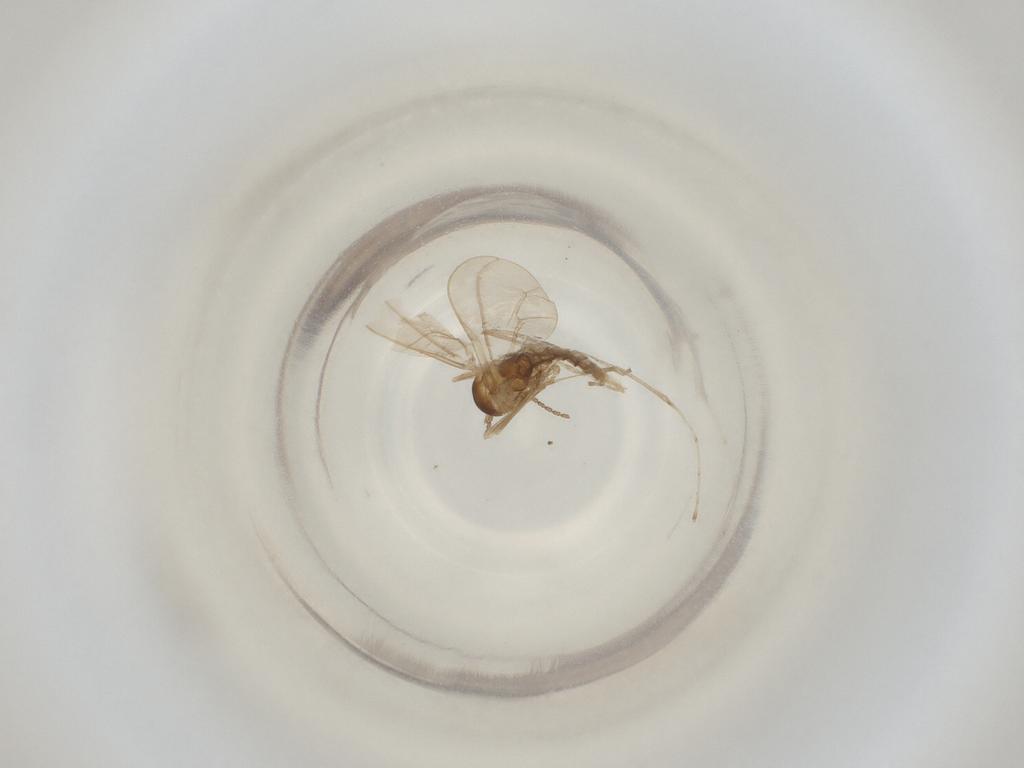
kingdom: Animalia
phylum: Arthropoda
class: Insecta
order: Diptera
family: Cecidomyiidae
